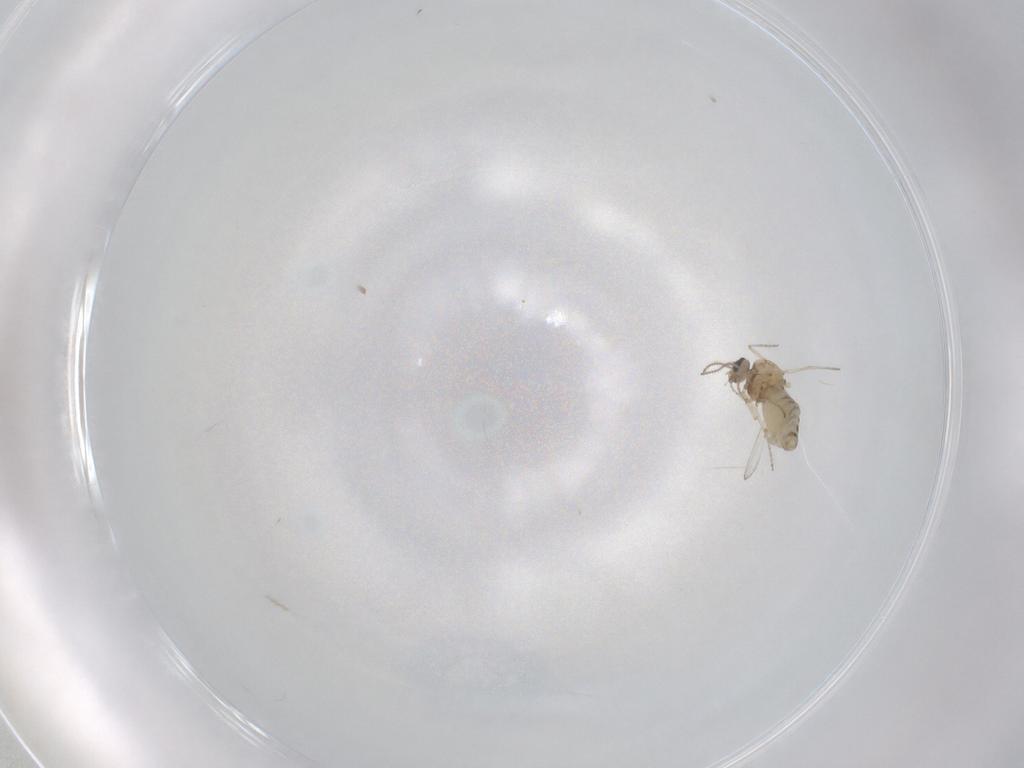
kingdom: Animalia
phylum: Arthropoda
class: Insecta
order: Diptera
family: Ceratopogonidae
